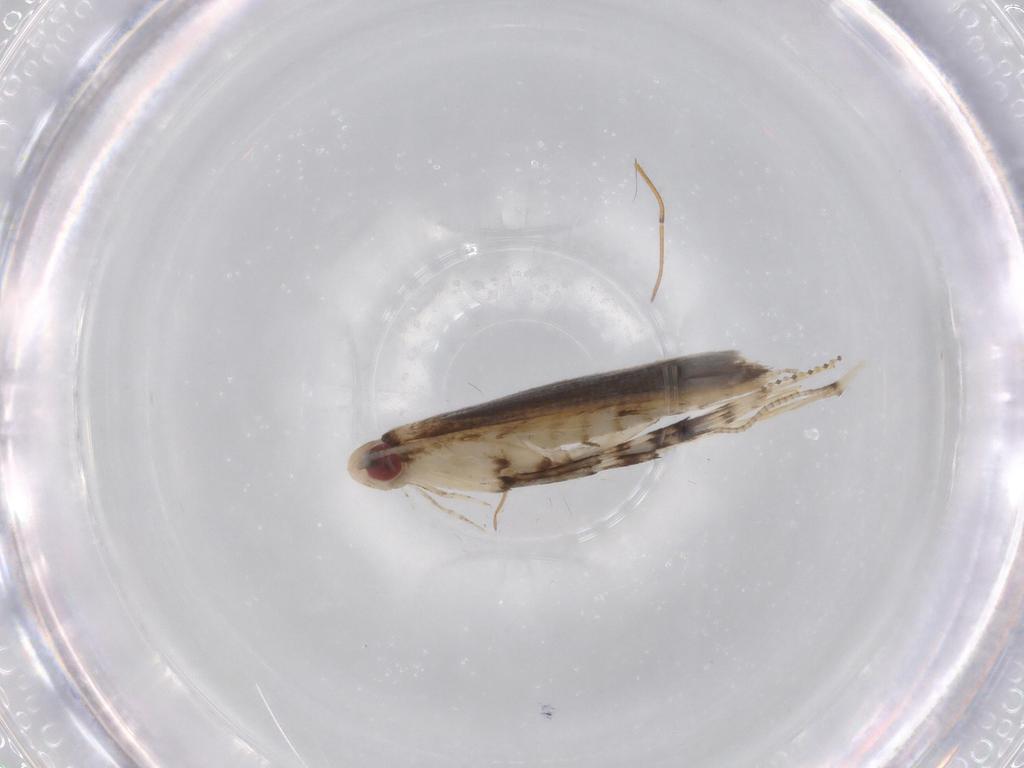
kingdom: Animalia
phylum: Arthropoda
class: Insecta
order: Lepidoptera
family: Gracillariidae
